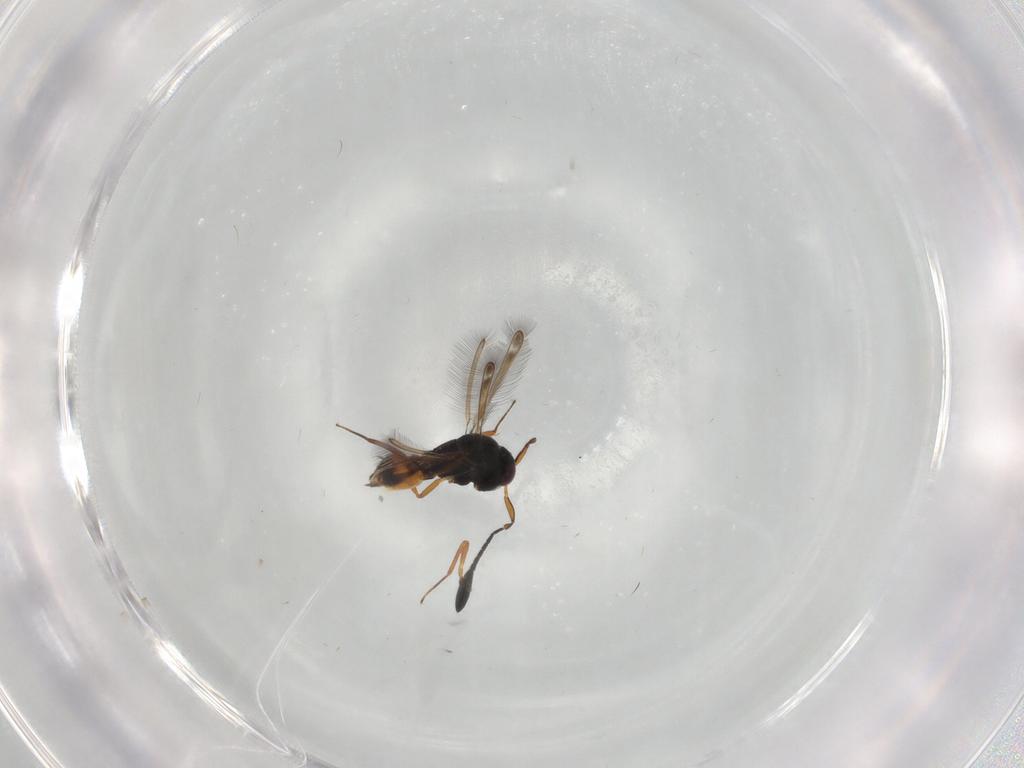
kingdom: Animalia
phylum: Arthropoda
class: Insecta
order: Hymenoptera
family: Mymaridae
